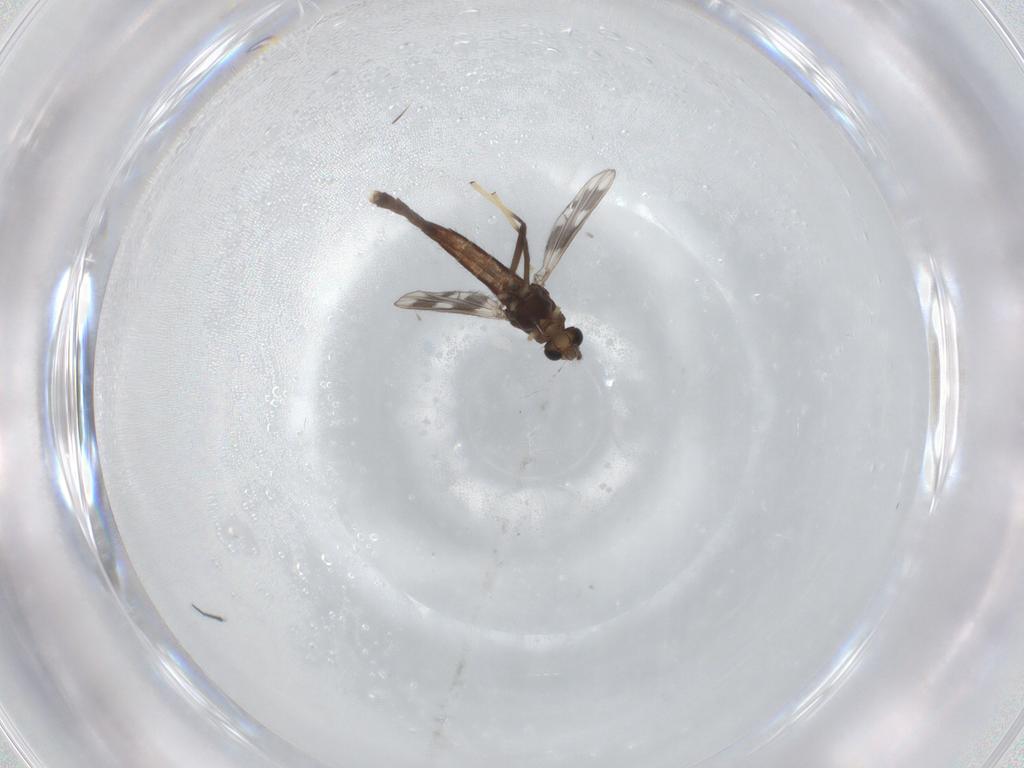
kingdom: Animalia
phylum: Arthropoda
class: Insecta
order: Diptera
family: Chironomidae
